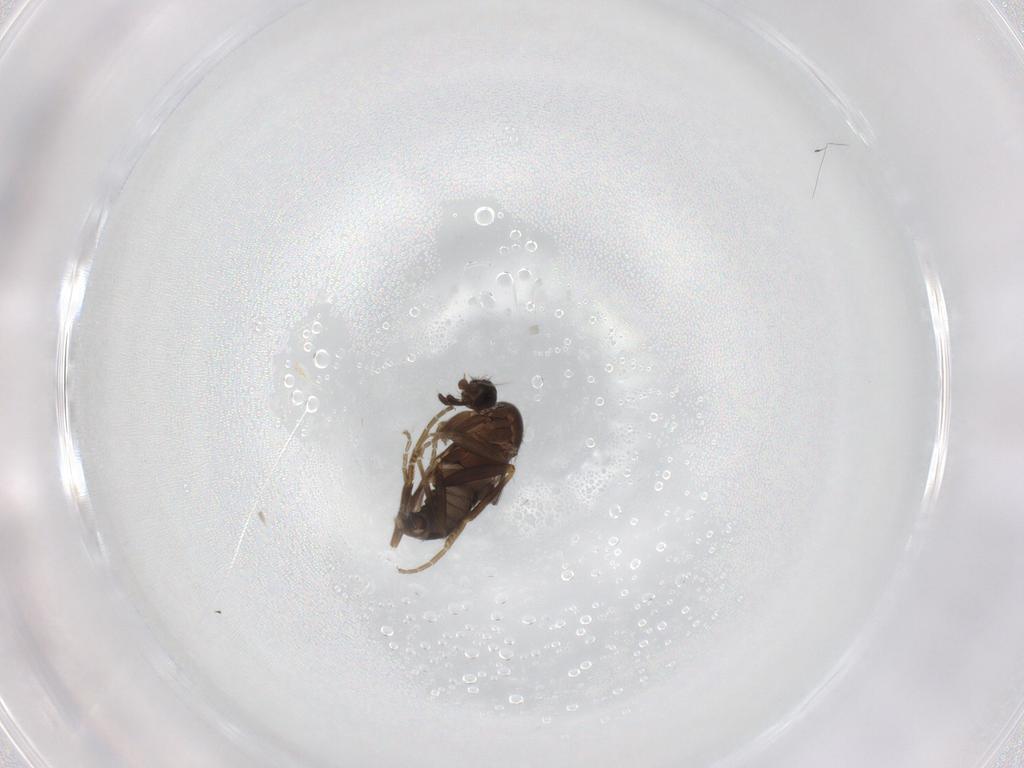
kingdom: Animalia
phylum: Arthropoda
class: Insecta
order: Diptera
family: Phoridae
